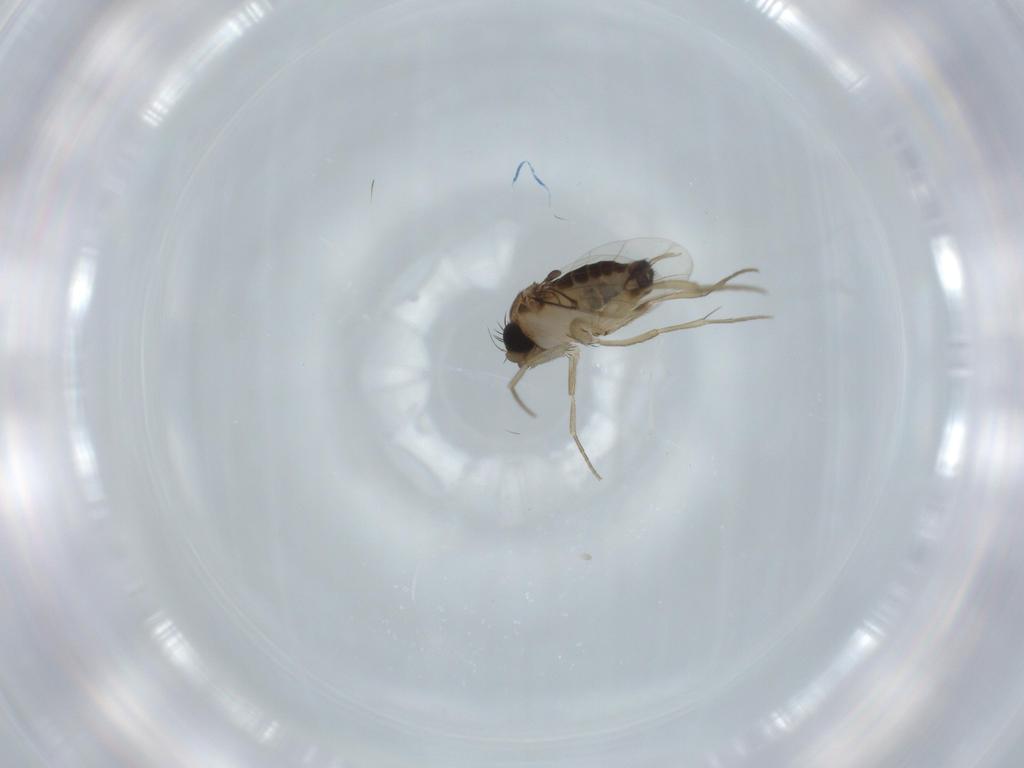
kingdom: Animalia
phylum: Arthropoda
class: Insecta
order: Diptera
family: Phoridae
